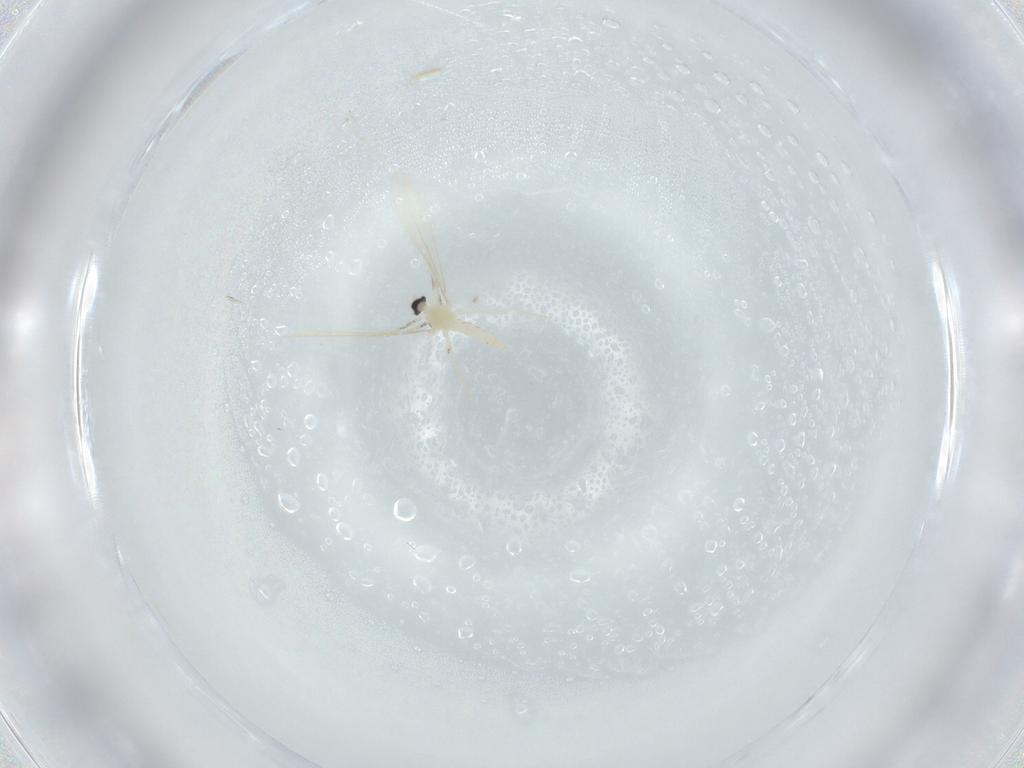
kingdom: Animalia
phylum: Arthropoda
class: Insecta
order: Diptera
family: Cecidomyiidae
